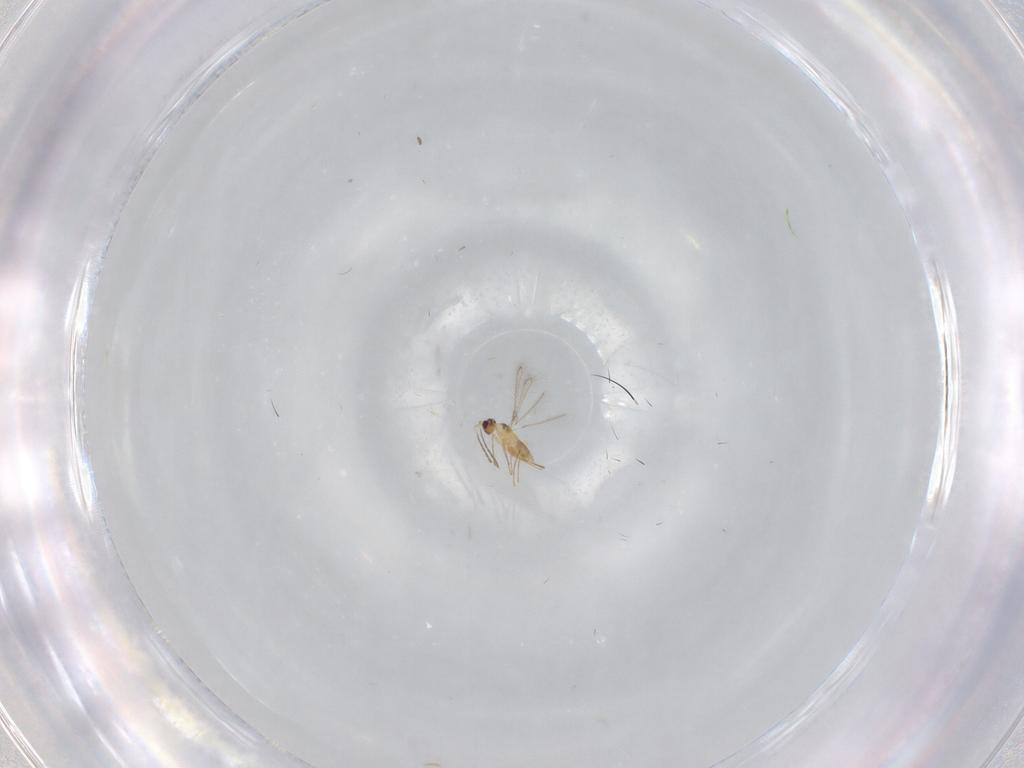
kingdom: Animalia
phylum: Arthropoda
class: Insecta
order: Hymenoptera
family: Mymaridae
